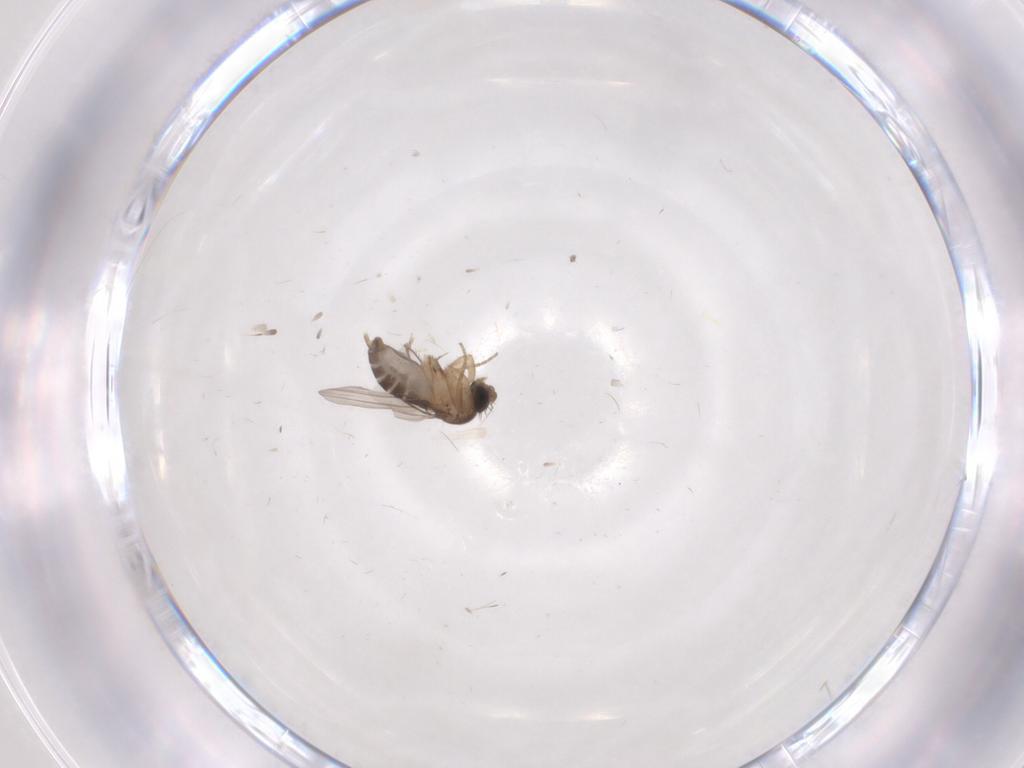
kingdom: Animalia
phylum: Arthropoda
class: Insecta
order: Diptera
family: Phoridae
